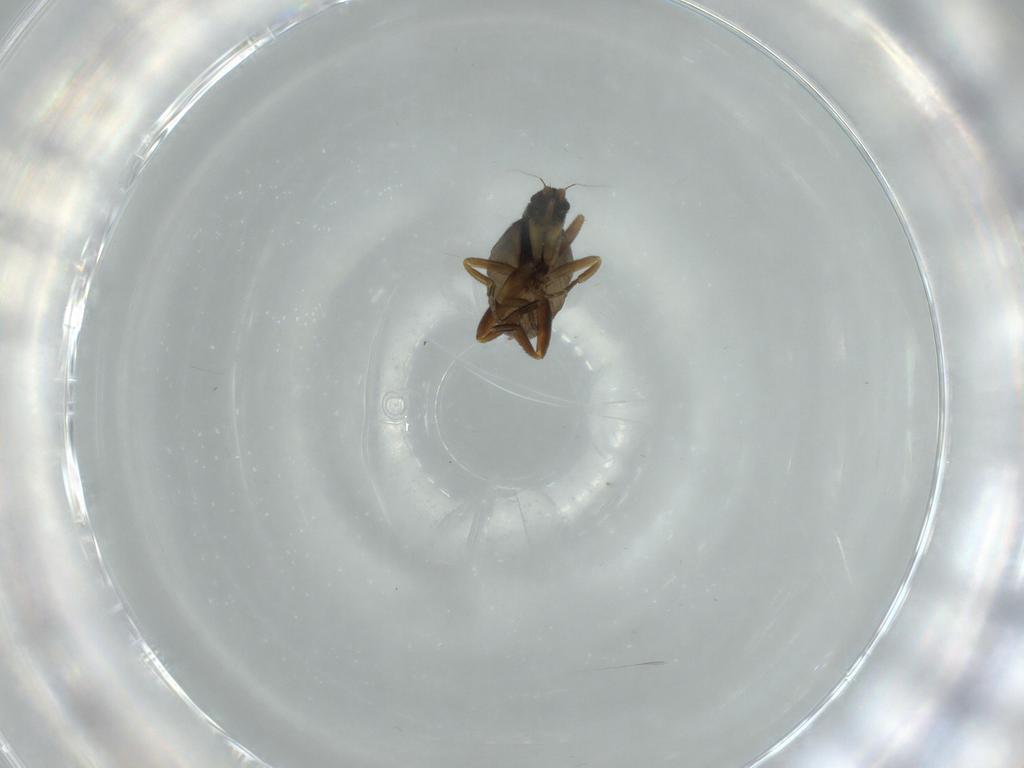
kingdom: Animalia
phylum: Arthropoda
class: Insecta
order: Diptera
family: Phoridae
